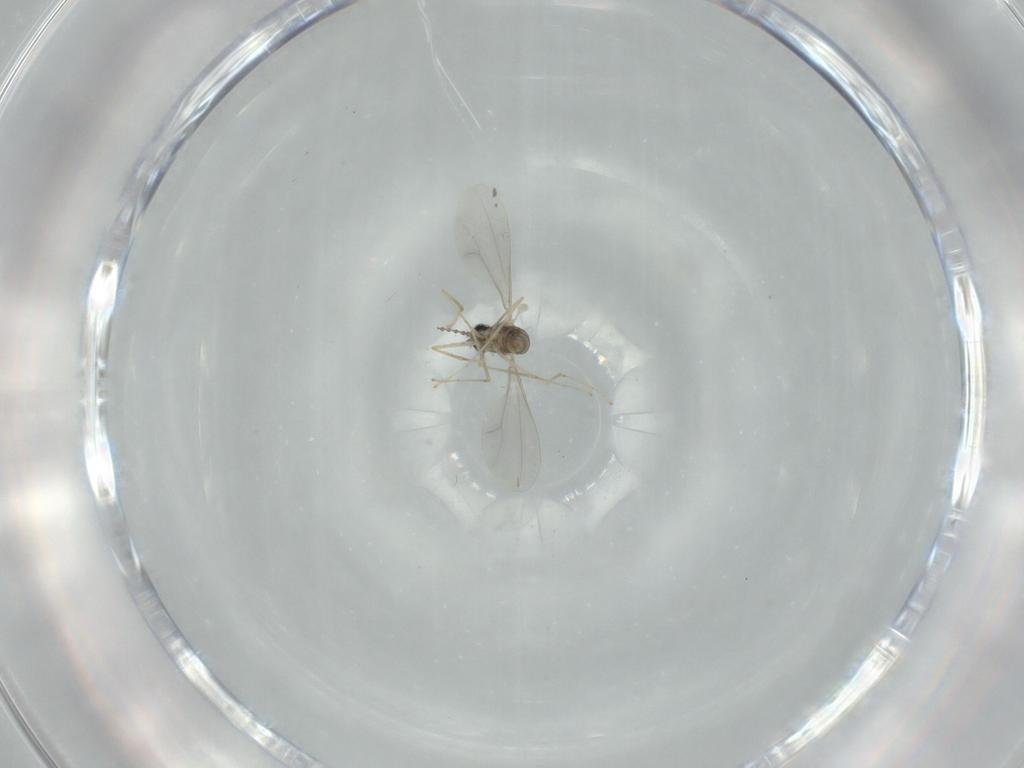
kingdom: Animalia
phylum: Arthropoda
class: Insecta
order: Diptera
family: Cecidomyiidae
